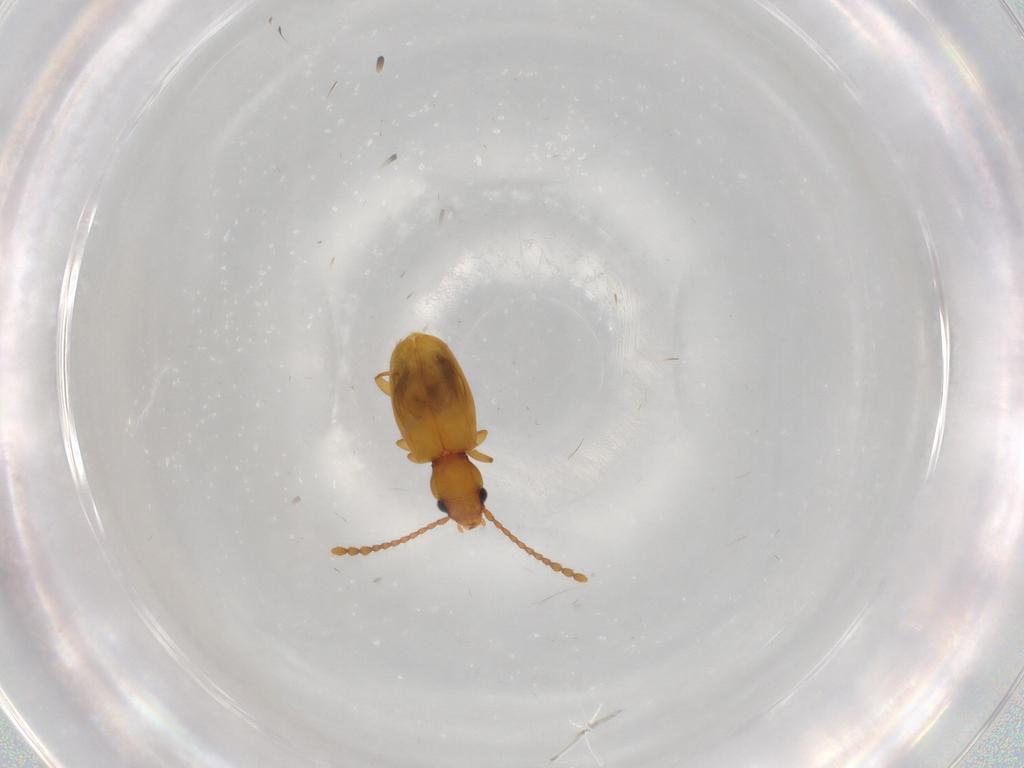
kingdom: Animalia
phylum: Arthropoda
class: Insecta
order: Coleoptera
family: Laemophloeidae
